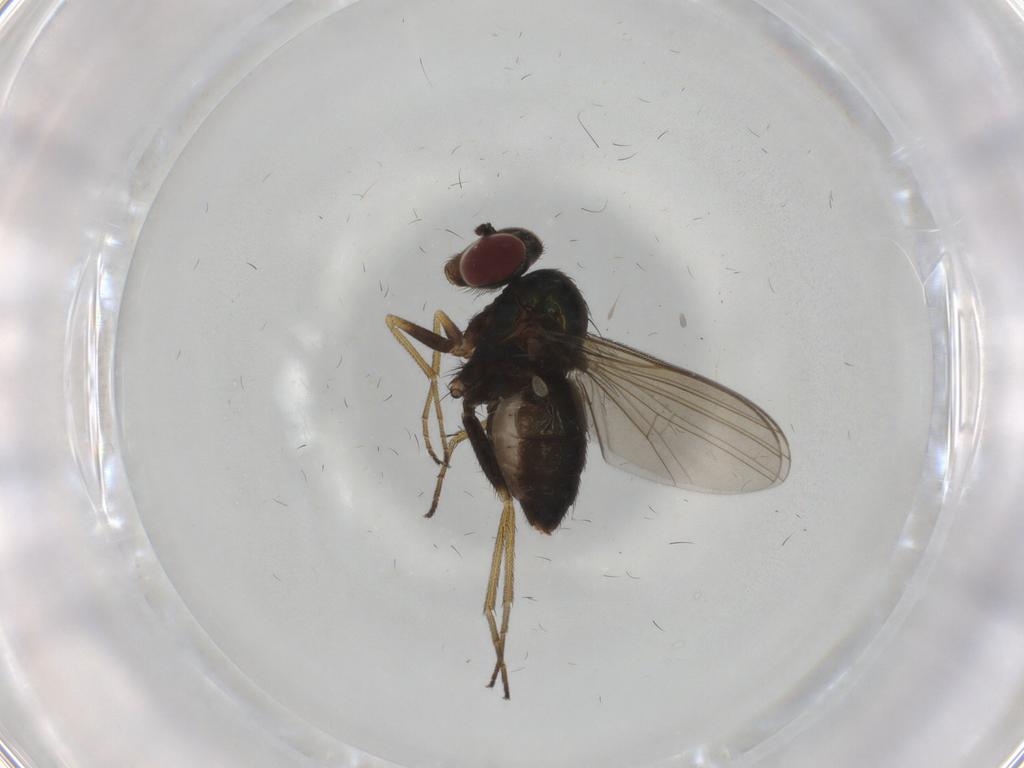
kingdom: Animalia
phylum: Arthropoda
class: Insecta
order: Diptera
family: Dolichopodidae
